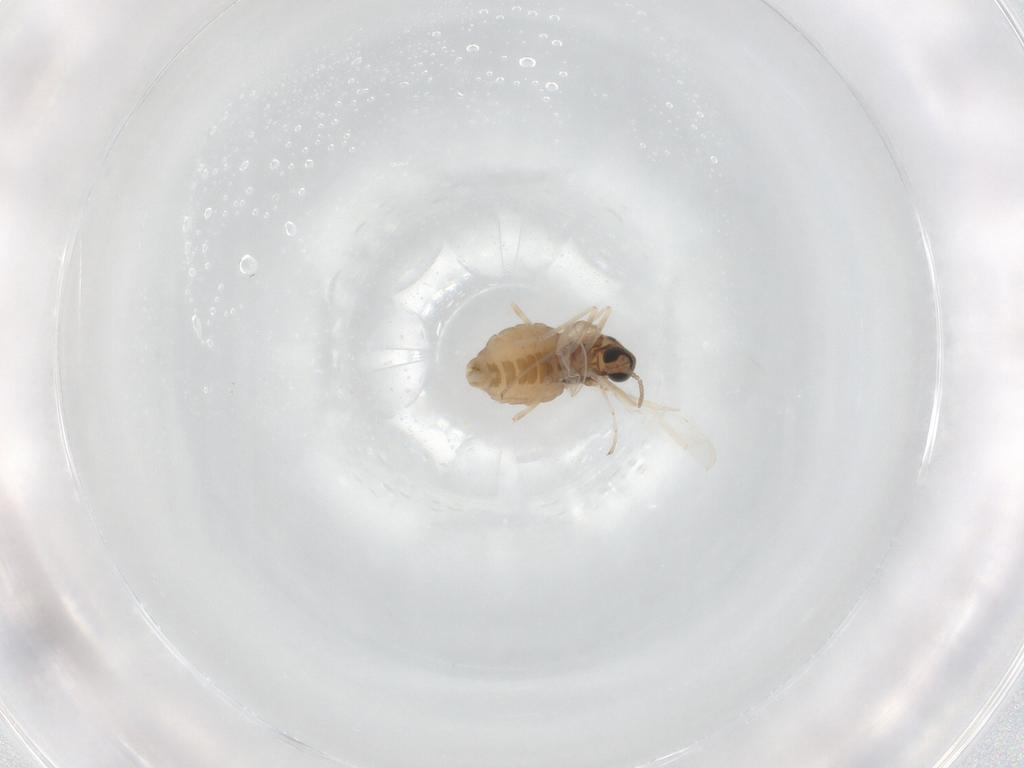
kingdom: Animalia
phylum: Arthropoda
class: Insecta
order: Diptera
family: Cecidomyiidae
